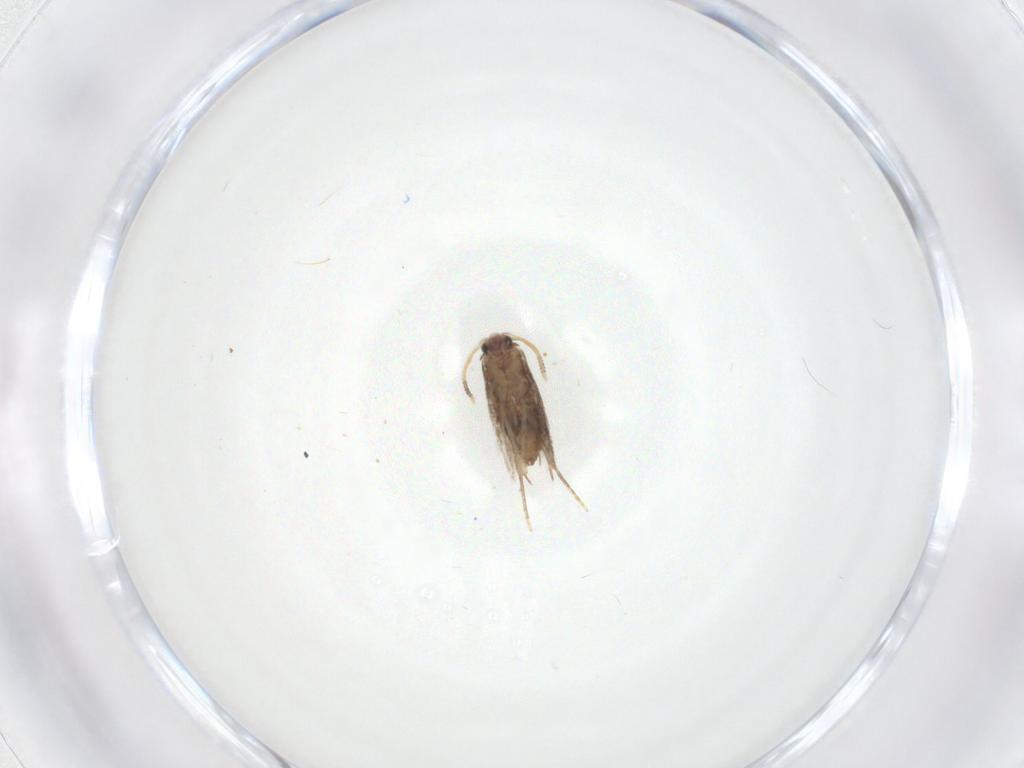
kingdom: Animalia
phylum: Arthropoda
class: Insecta
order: Lepidoptera
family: Nepticulidae
